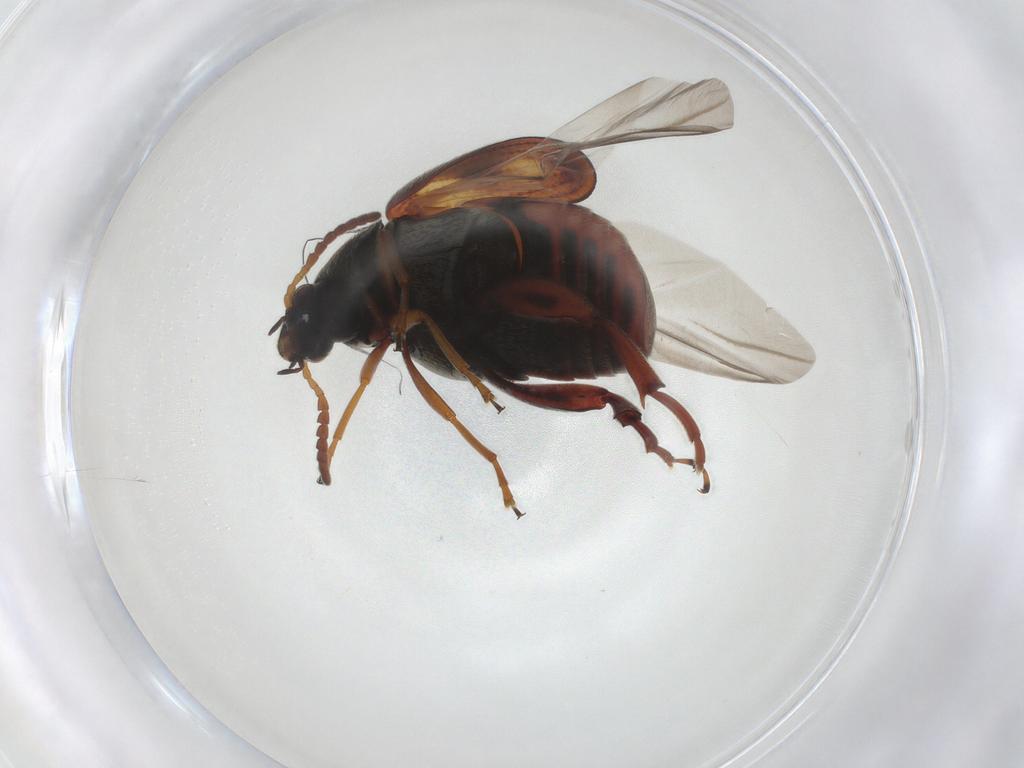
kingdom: Animalia
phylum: Arthropoda
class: Insecta
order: Coleoptera
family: Chrysomelidae
